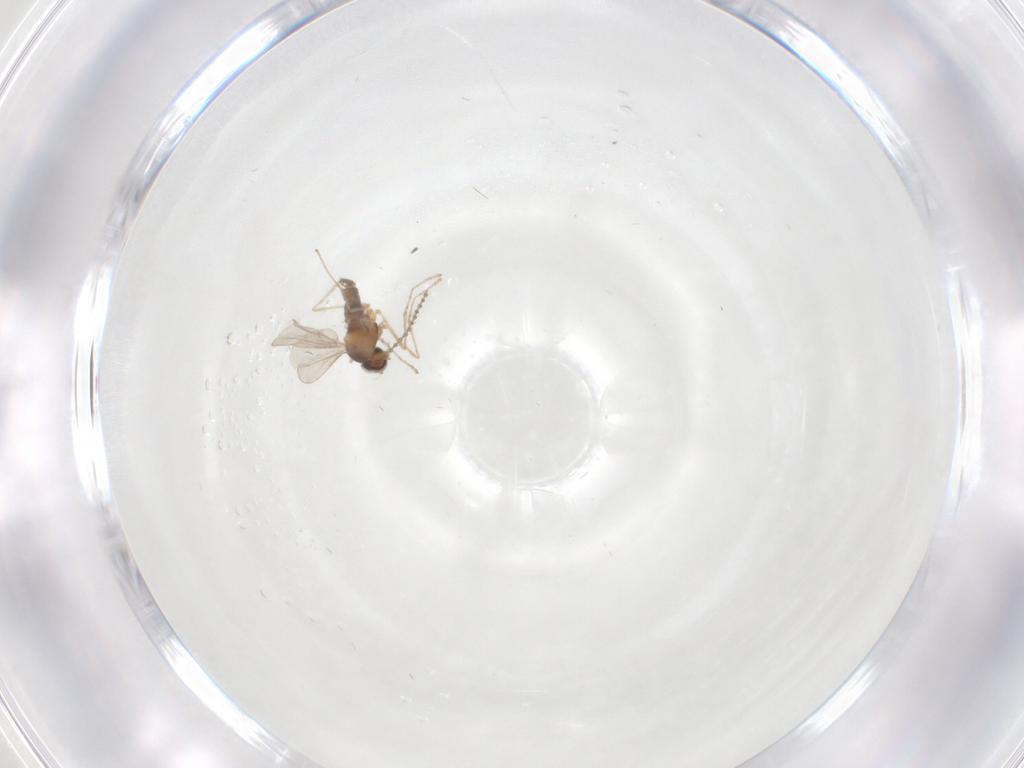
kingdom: Animalia
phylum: Arthropoda
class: Insecta
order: Diptera
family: Cecidomyiidae
